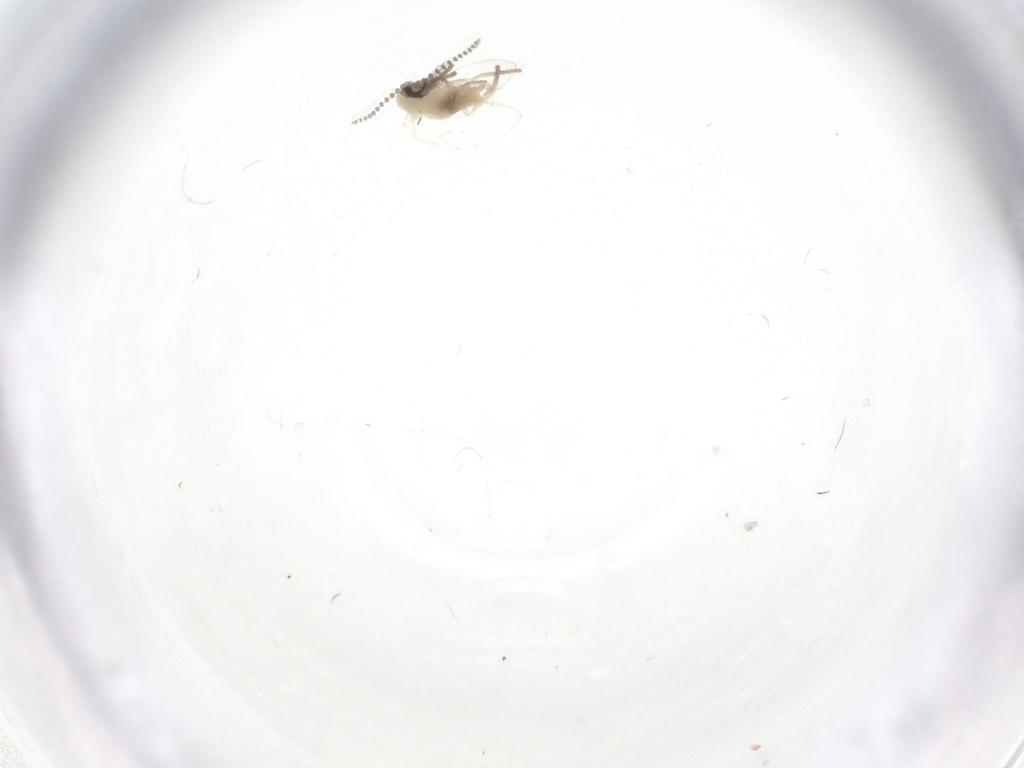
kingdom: Animalia
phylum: Arthropoda
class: Insecta
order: Diptera
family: Psychodidae
